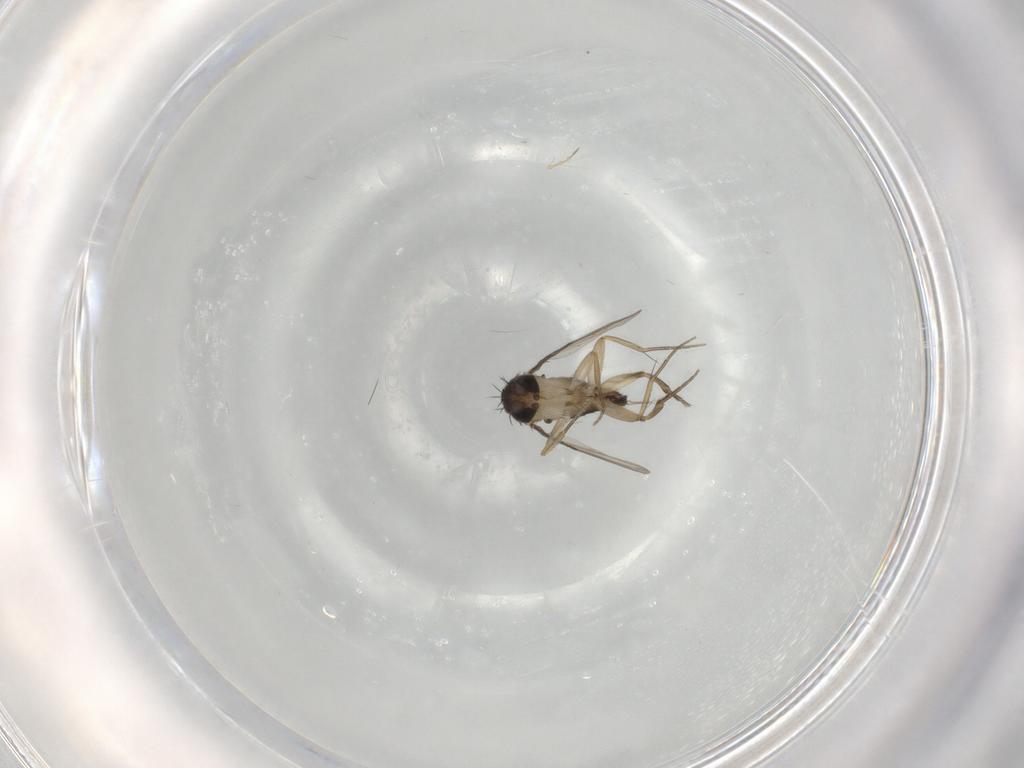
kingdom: Animalia
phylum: Arthropoda
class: Insecta
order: Diptera
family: Phoridae
